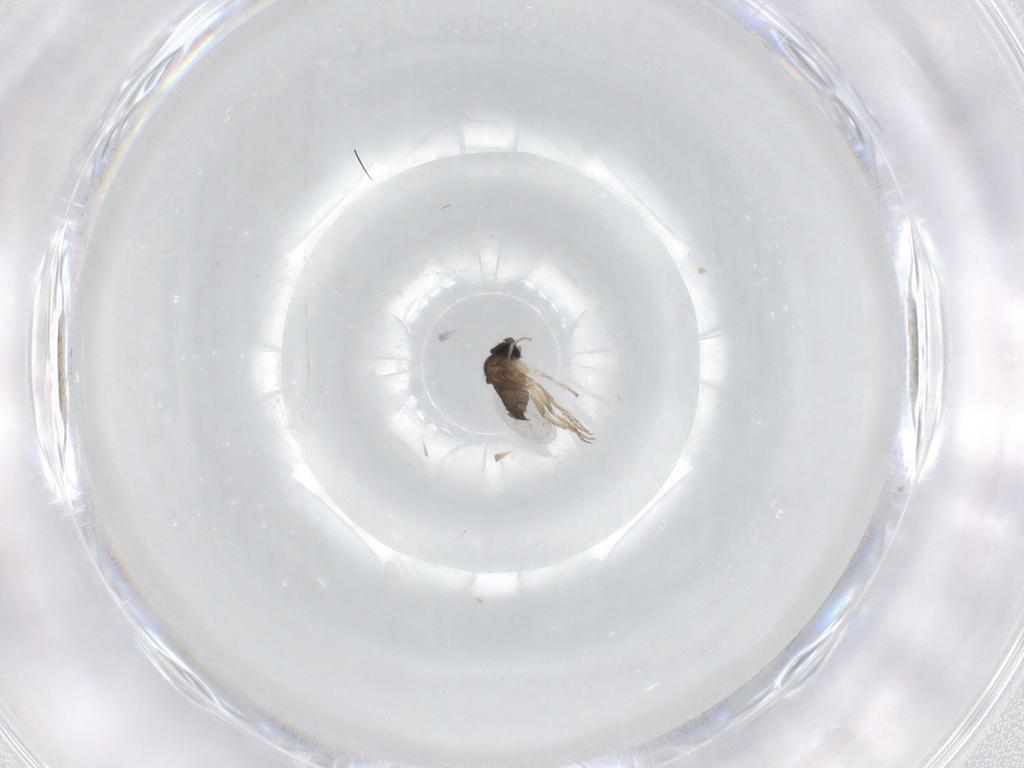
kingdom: Animalia
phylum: Arthropoda
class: Insecta
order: Diptera
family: Phoridae
